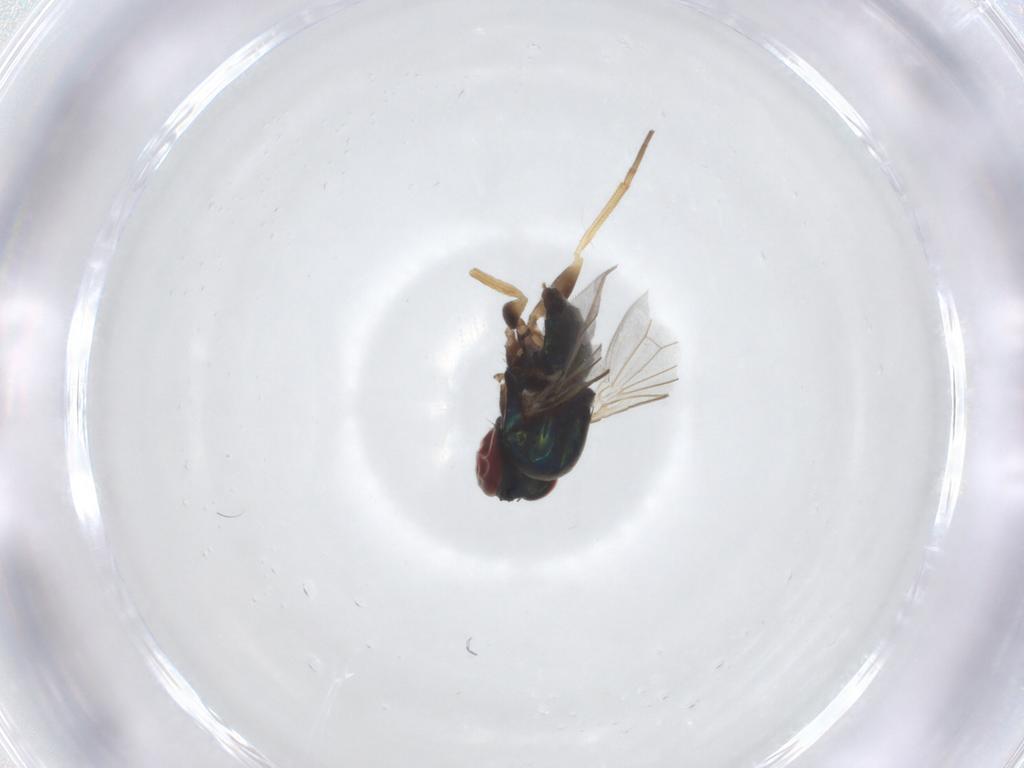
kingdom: Animalia
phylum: Arthropoda
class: Insecta
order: Diptera
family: Dolichopodidae
